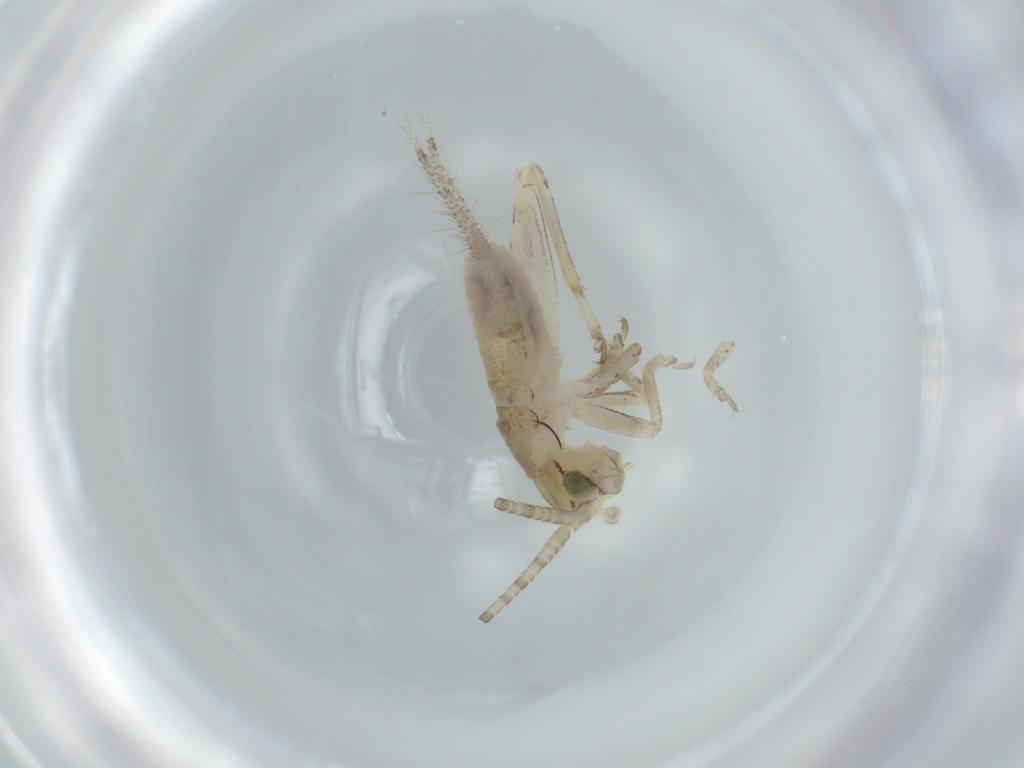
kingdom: Animalia
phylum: Arthropoda
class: Insecta
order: Orthoptera
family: Gryllidae
